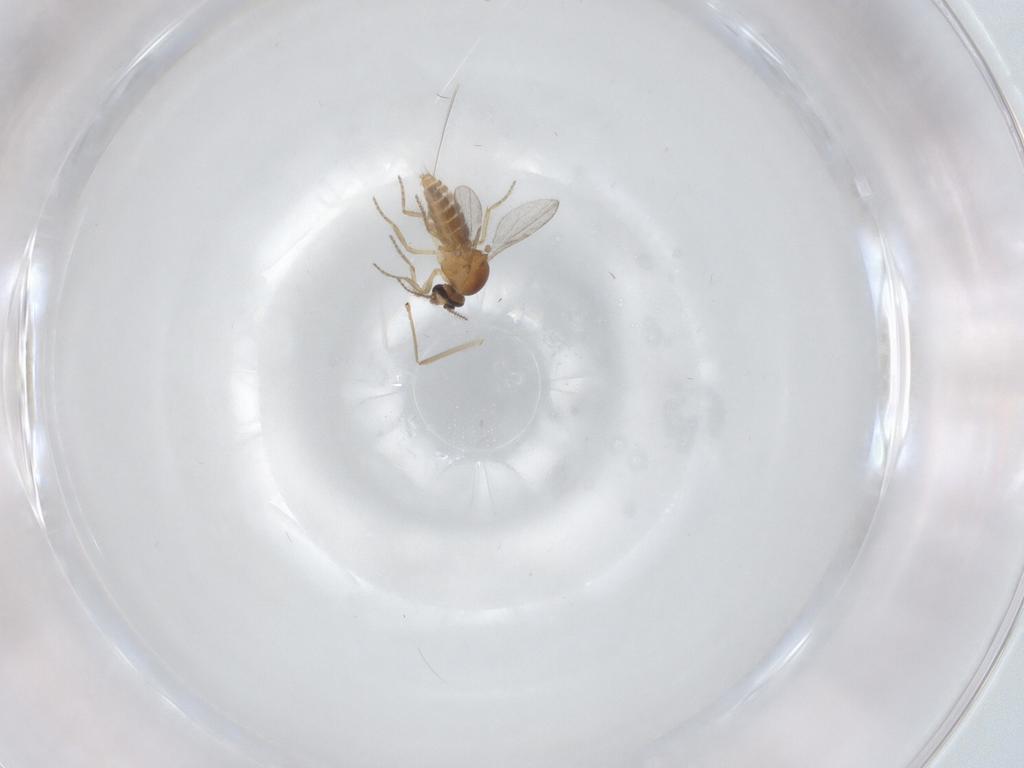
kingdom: Animalia
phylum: Arthropoda
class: Insecta
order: Diptera
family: Ceratopogonidae
